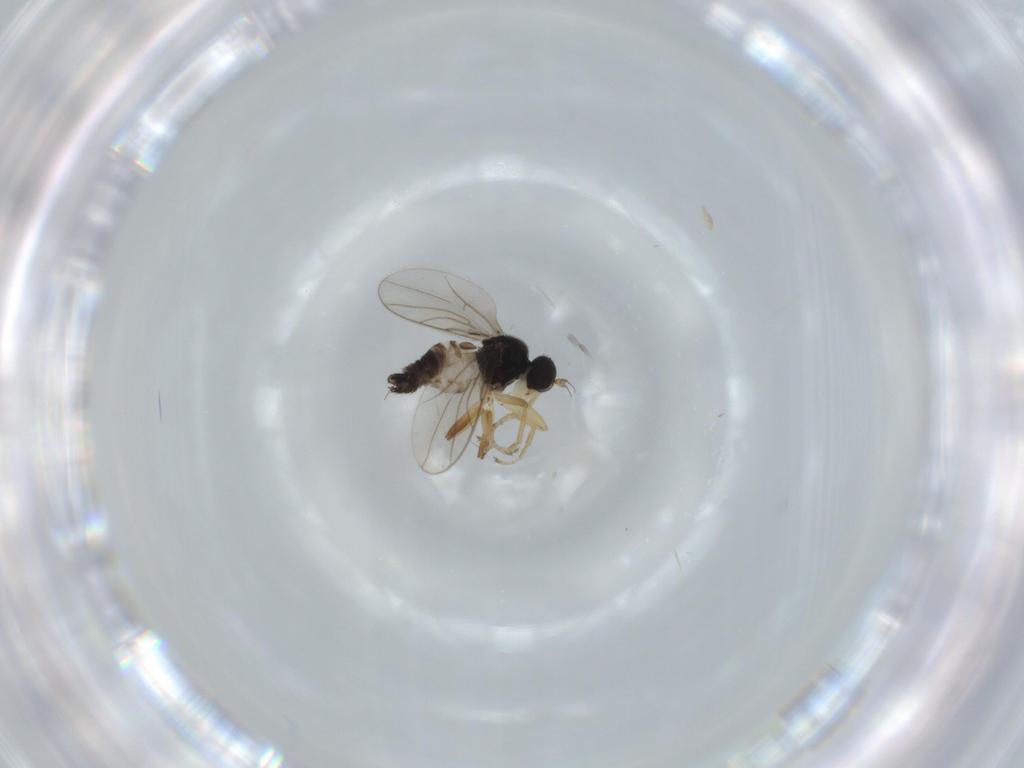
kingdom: Animalia
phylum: Arthropoda
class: Insecta
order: Diptera
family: Hybotidae
